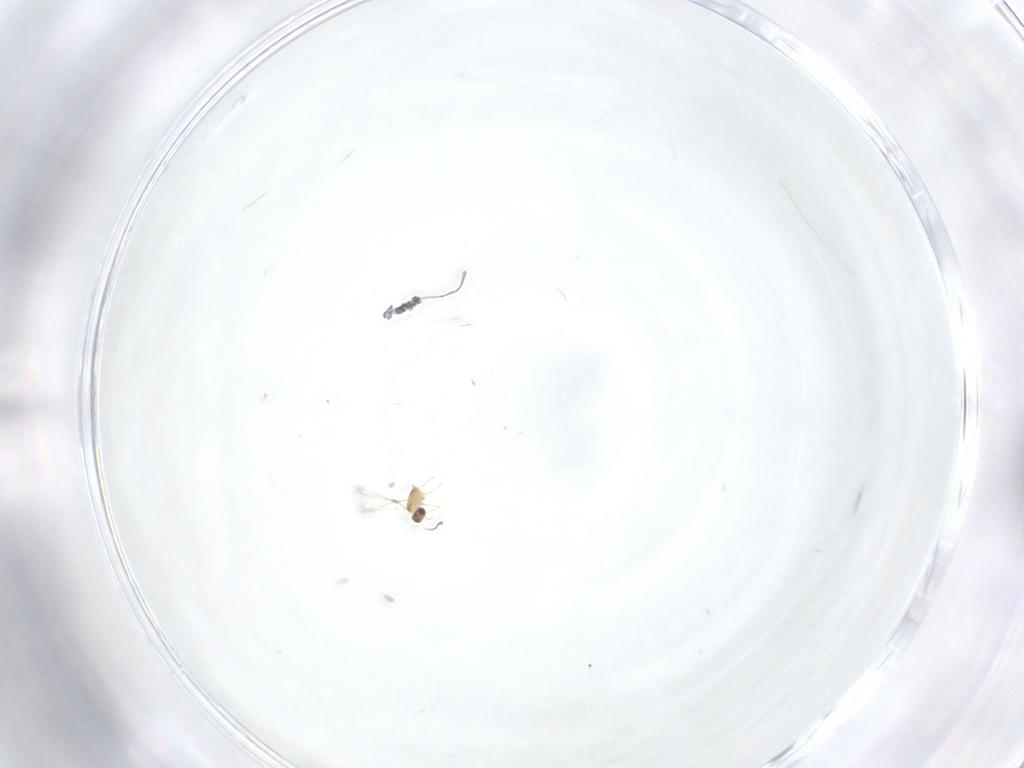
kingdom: Animalia
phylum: Arthropoda
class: Insecta
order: Hymenoptera
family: Mymaridae
